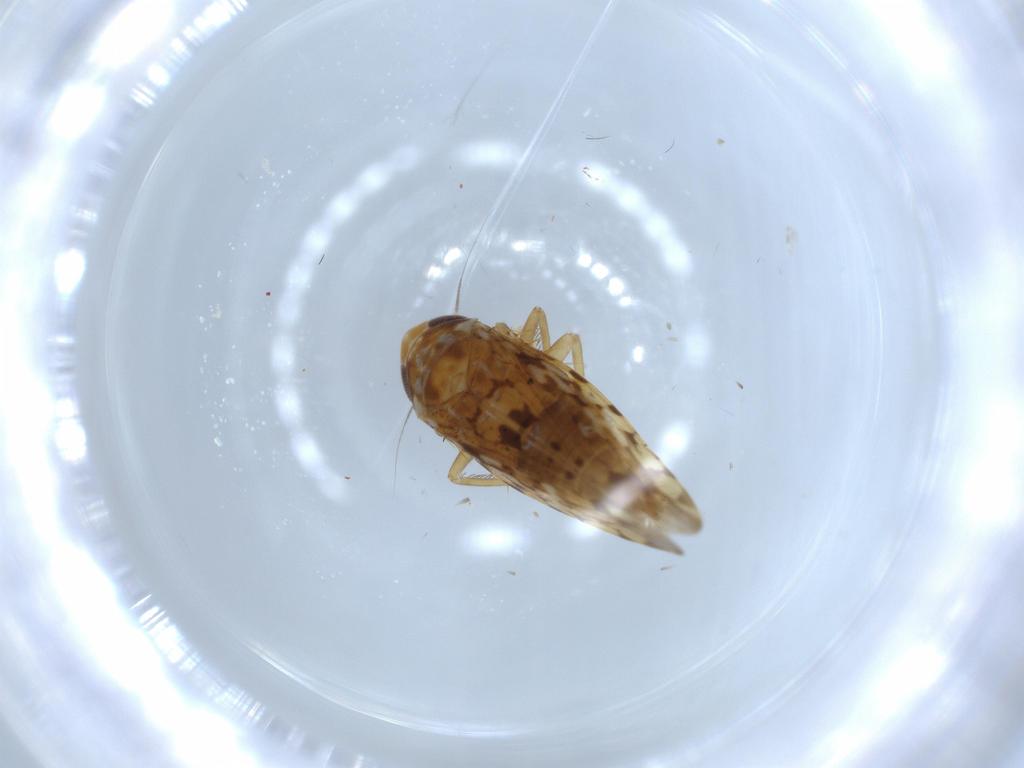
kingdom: Animalia
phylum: Arthropoda
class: Insecta
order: Hemiptera
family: Cicadellidae
